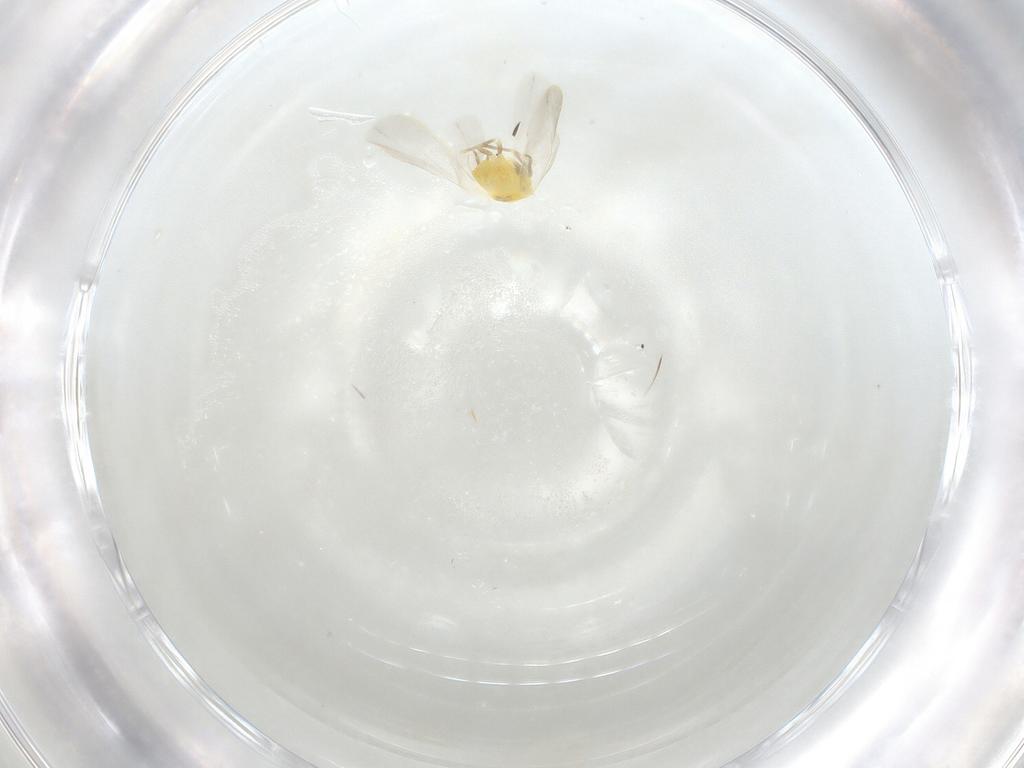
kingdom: Animalia
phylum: Arthropoda
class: Insecta
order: Hemiptera
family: Aleyrodidae
